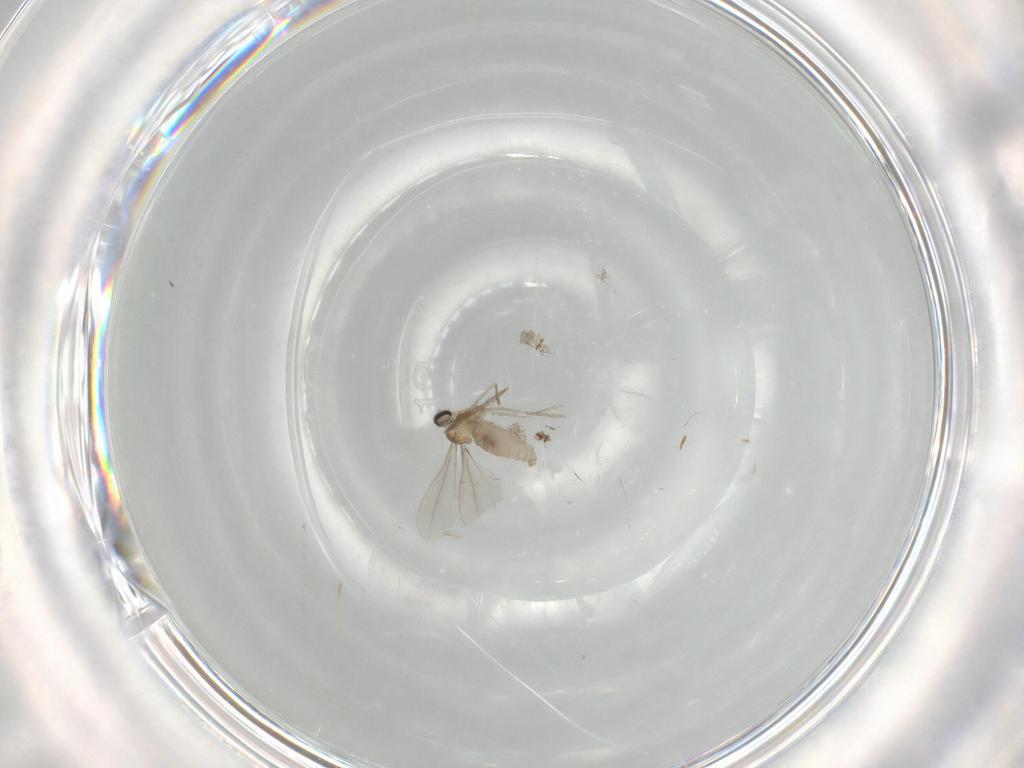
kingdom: Animalia
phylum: Arthropoda
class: Insecta
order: Diptera
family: Cecidomyiidae
